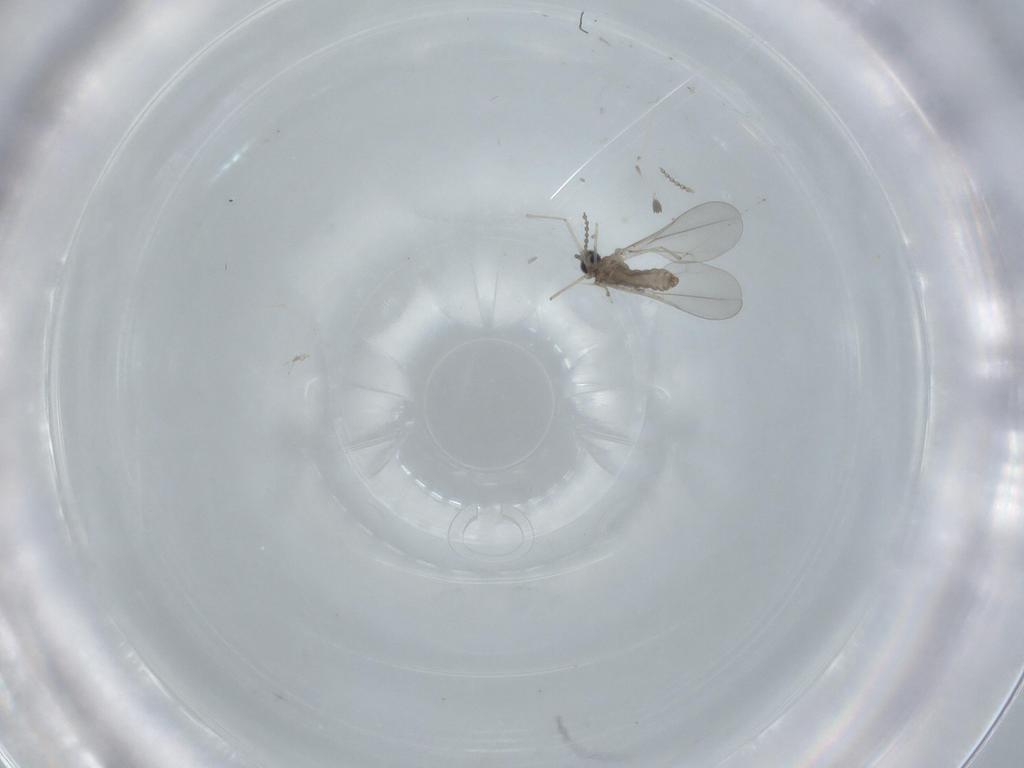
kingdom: Animalia
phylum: Arthropoda
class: Insecta
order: Diptera
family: Cecidomyiidae
